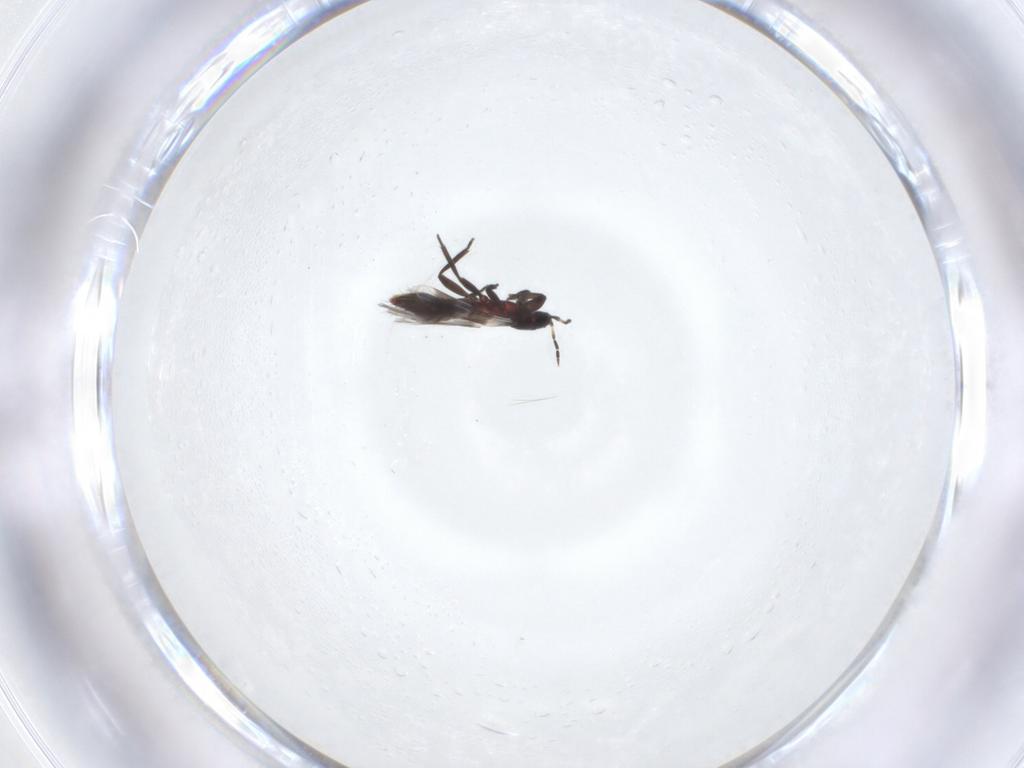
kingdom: Animalia
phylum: Arthropoda
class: Insecta
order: Thysanoptera
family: Aeolothripidae
